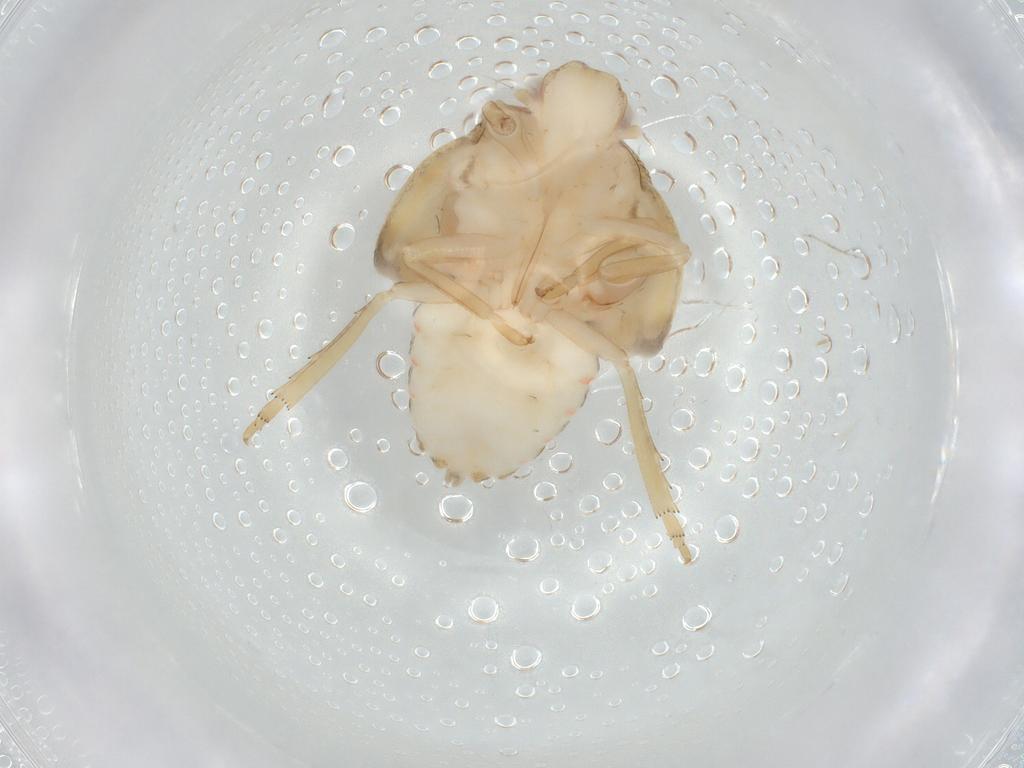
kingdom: Animalia
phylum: Arthropoda
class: Insecta
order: Hemiptera
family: Flatidae
